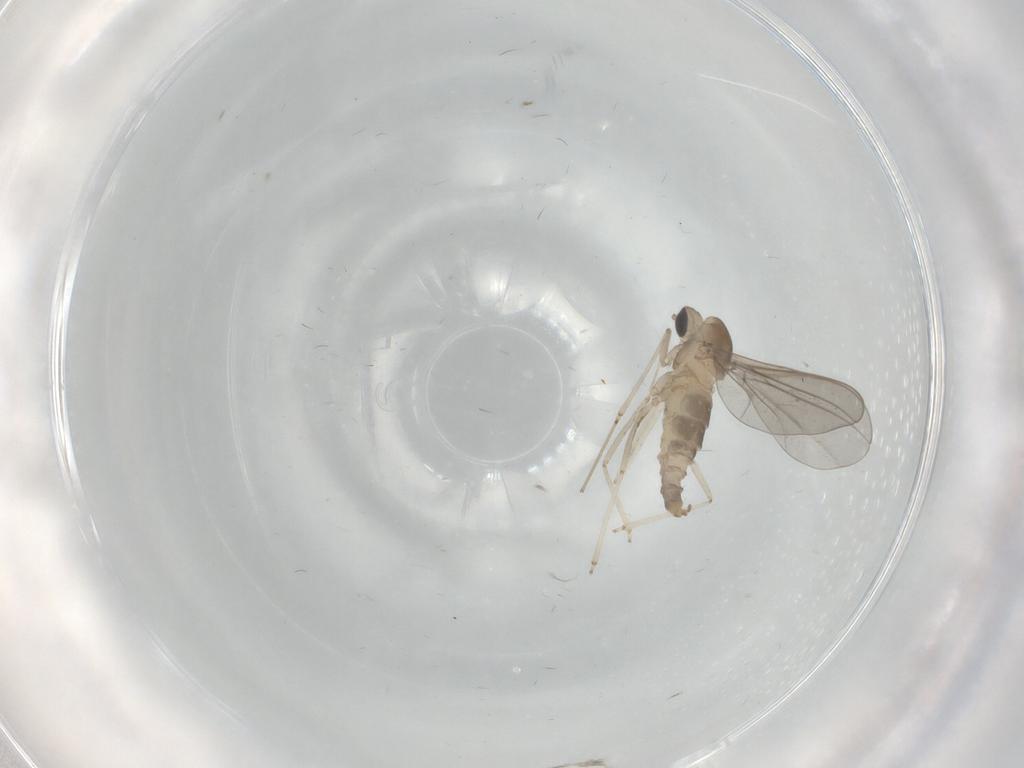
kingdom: Animalia
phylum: Arthropoda
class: Insecta
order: Diptera
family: Cecidomyiidae
